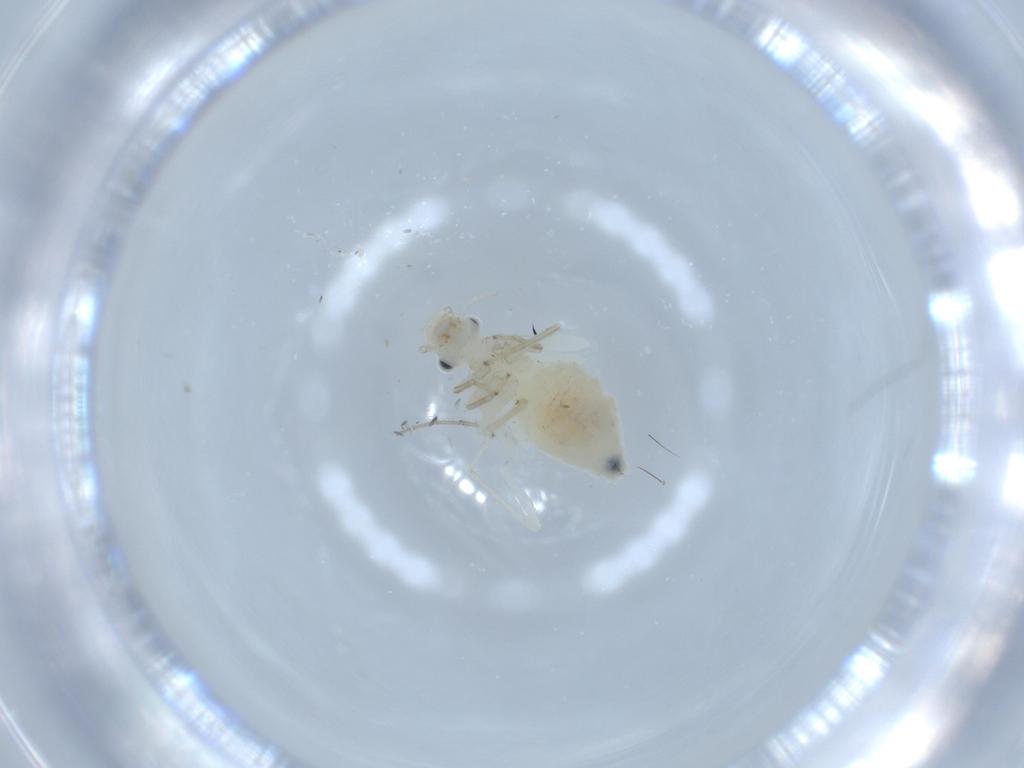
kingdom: Animalia
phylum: Arthropoda
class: Insecta
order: Psocodea
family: Caeciliusidae
